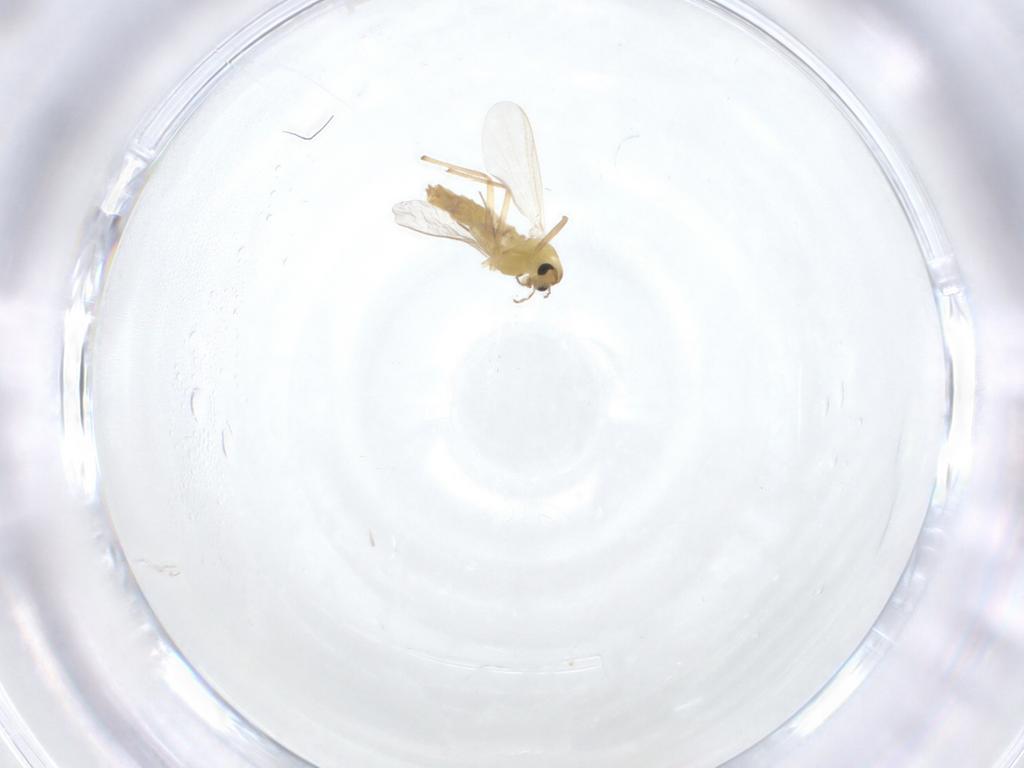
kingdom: Animalia
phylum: Arthropoda
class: Insecta
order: Diptera
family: Chironomidae
